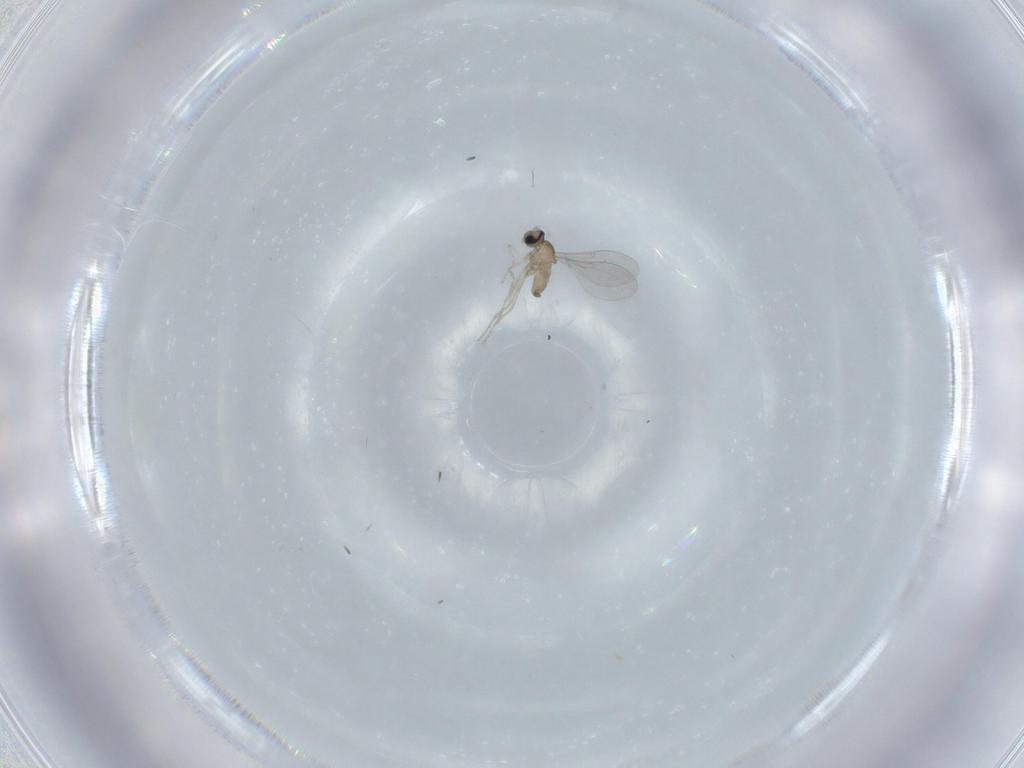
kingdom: Animalia
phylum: Arthropoda
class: Insecta
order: Diptera
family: Cecidomyiidae
